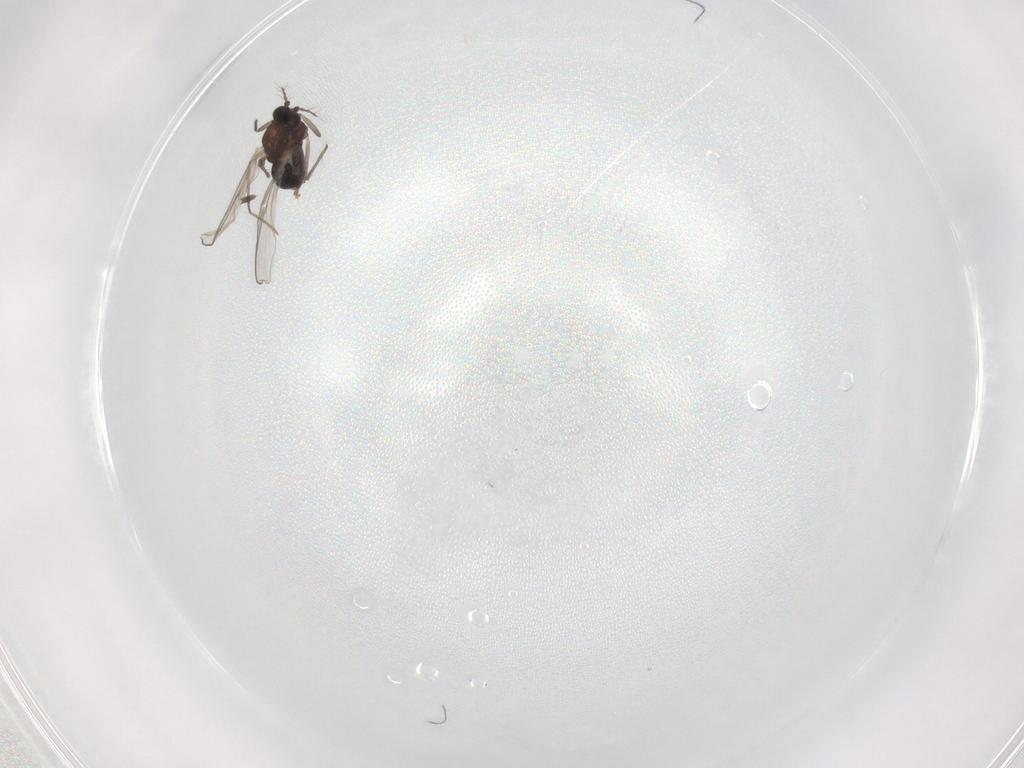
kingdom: Animalia
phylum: Arthropoda
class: Insecta
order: Diptera
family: Chironomidae
